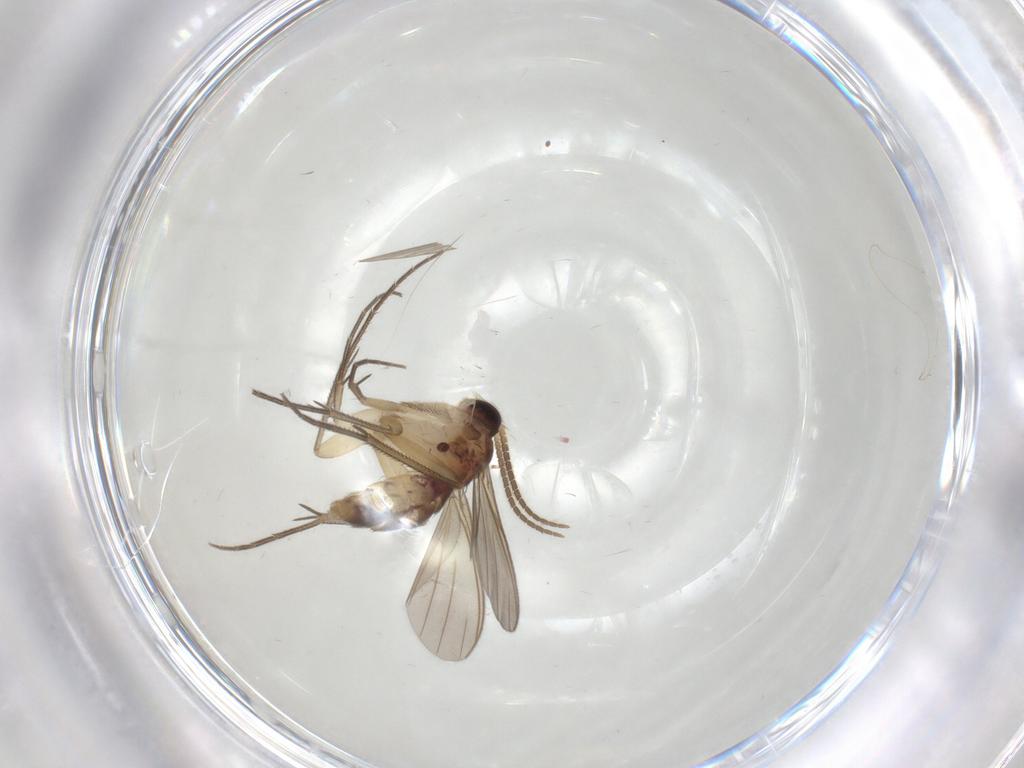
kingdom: Animalia
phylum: Arthropoda
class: Insecta
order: Diptera
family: Mycetophilidae
